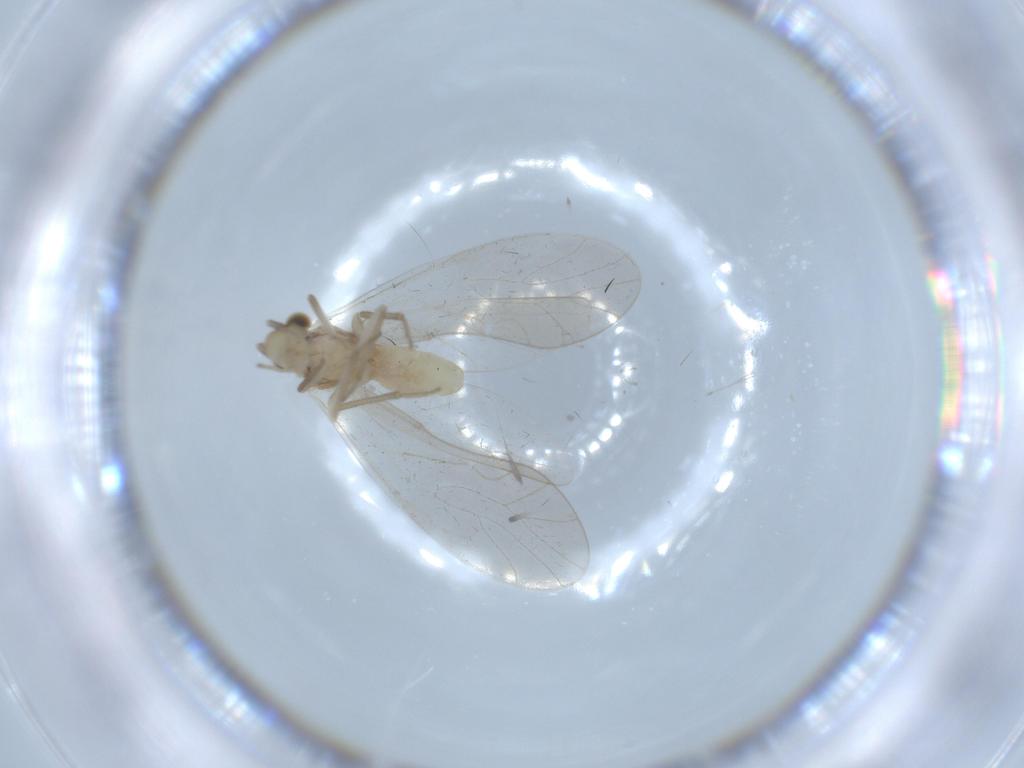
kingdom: Animalia
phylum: Arthropoda
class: Insecta
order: Psocodea
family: Caeciliusidae
